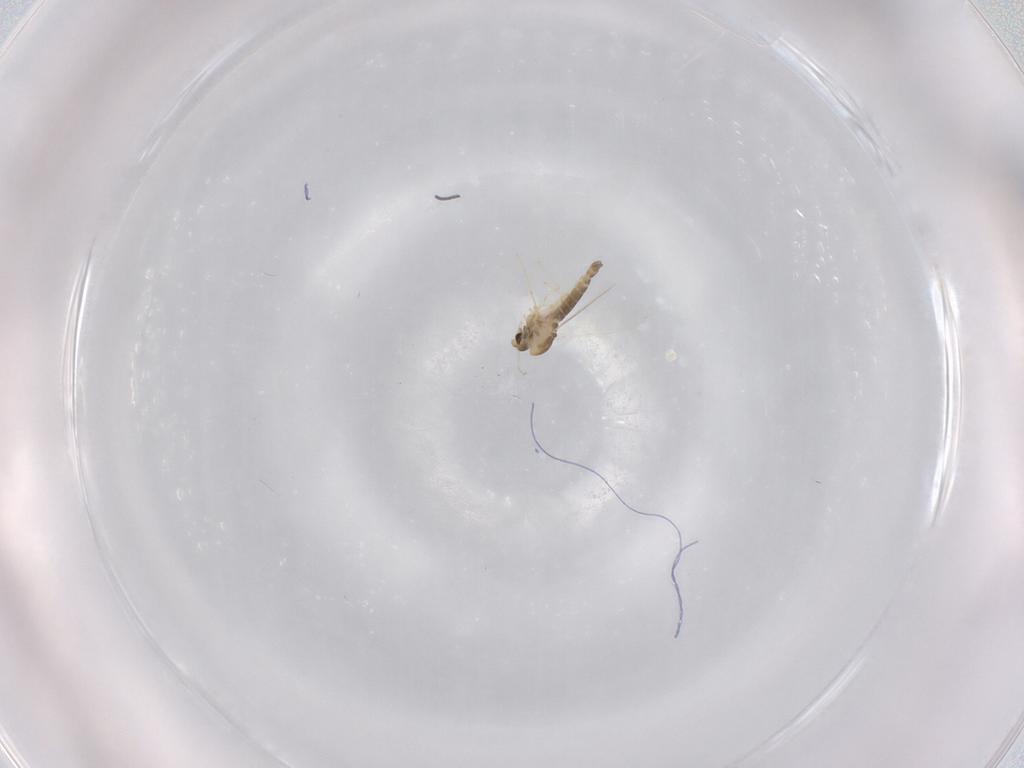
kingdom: Animalia
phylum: Arthropoda
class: Insecta
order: Diptera
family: Chironomidae
